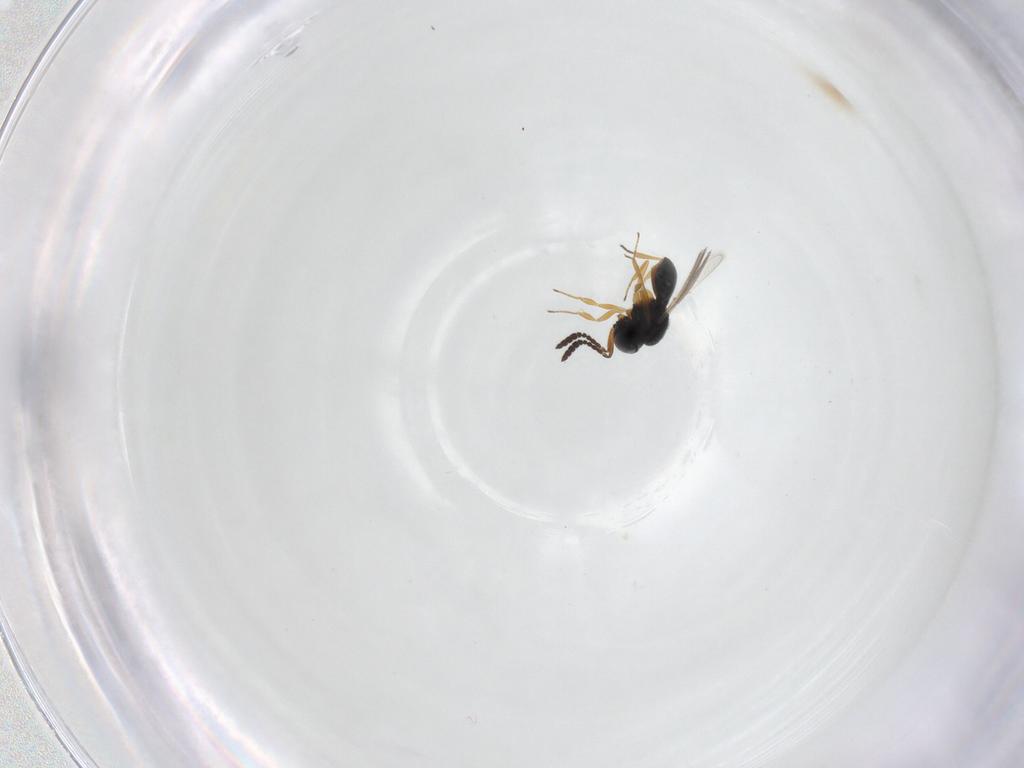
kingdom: Animalia
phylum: Arthropoda
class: Insecta
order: Hymenoptera
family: Scelionidae
